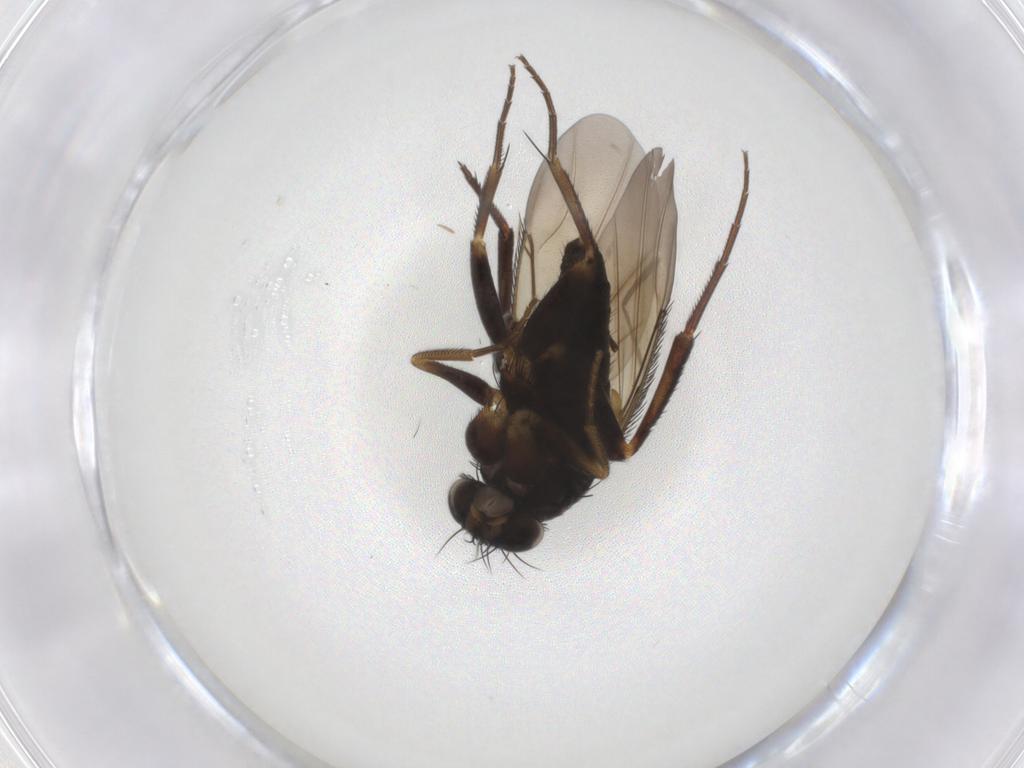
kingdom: Animalia
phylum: Arthropoda
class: Insecta
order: Diptera
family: Phoridae
